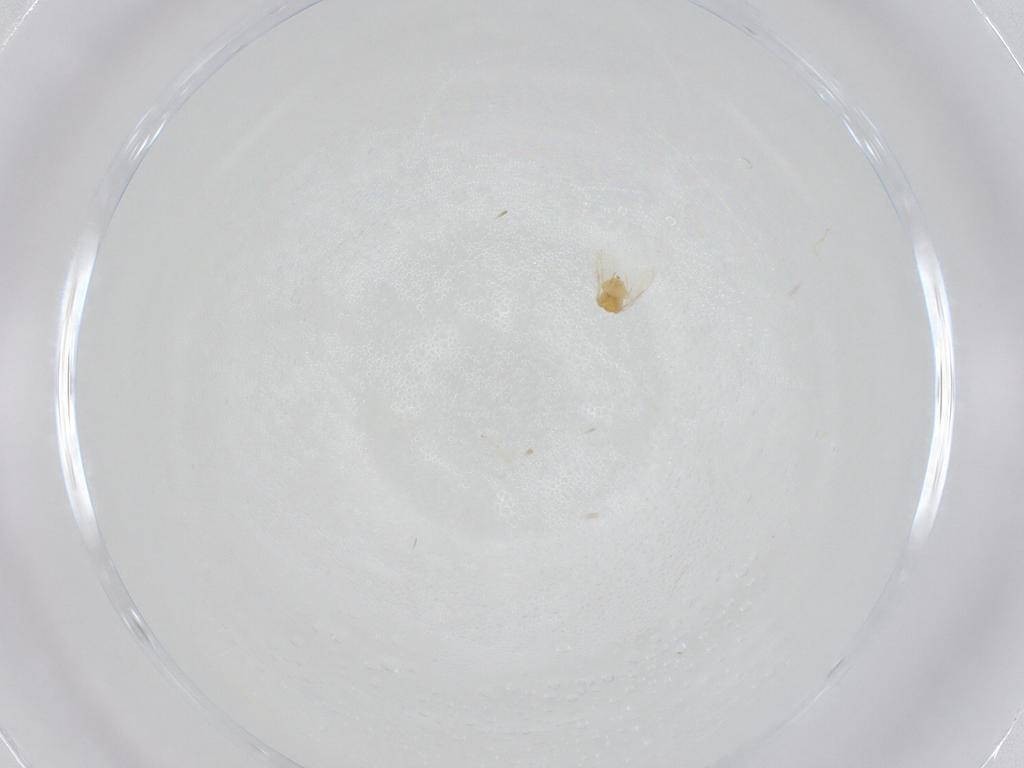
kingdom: Animalia
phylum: Arthropoda
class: Insecta
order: Hymenoptera
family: Aphelinidae
